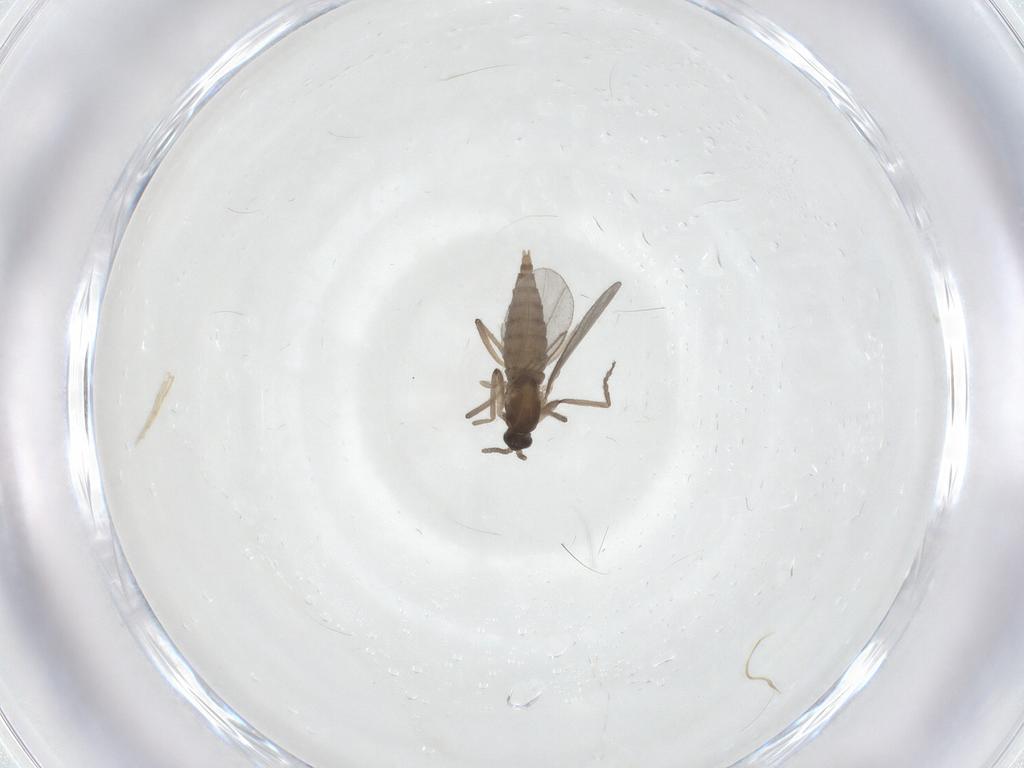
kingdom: Animalia
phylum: Arthropoda
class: Insecta
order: Diptera
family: Cecidomyiidae
